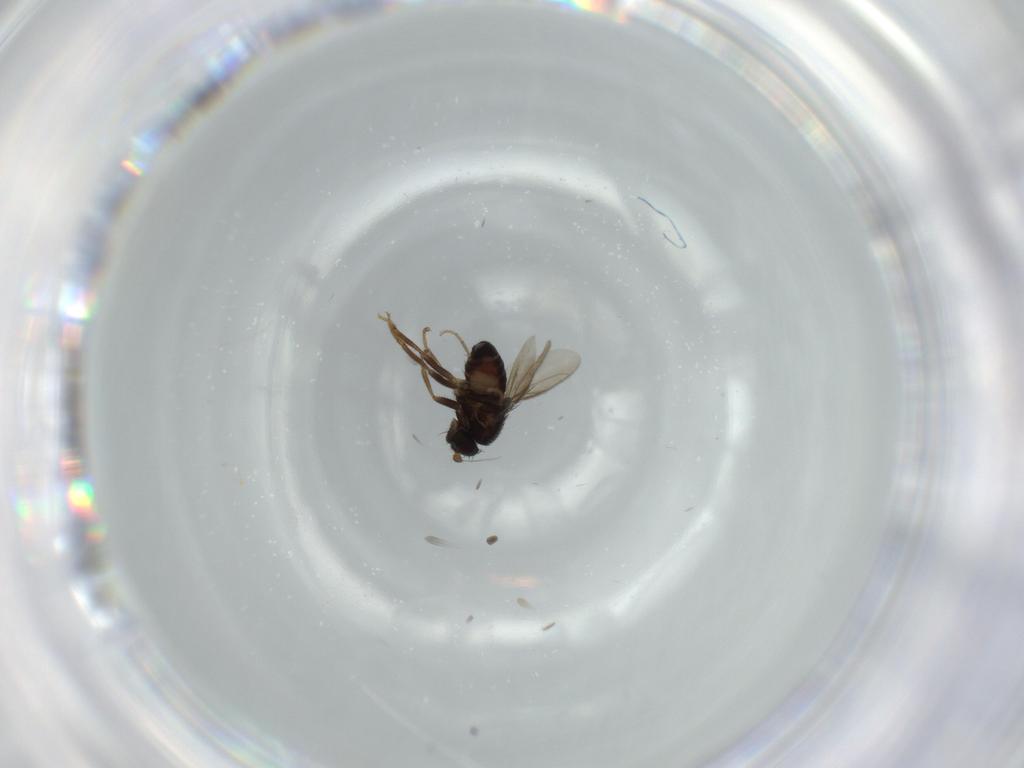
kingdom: Animalia
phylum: Arthropoda
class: Insecta
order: Diptera
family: Sphaeroceridae
